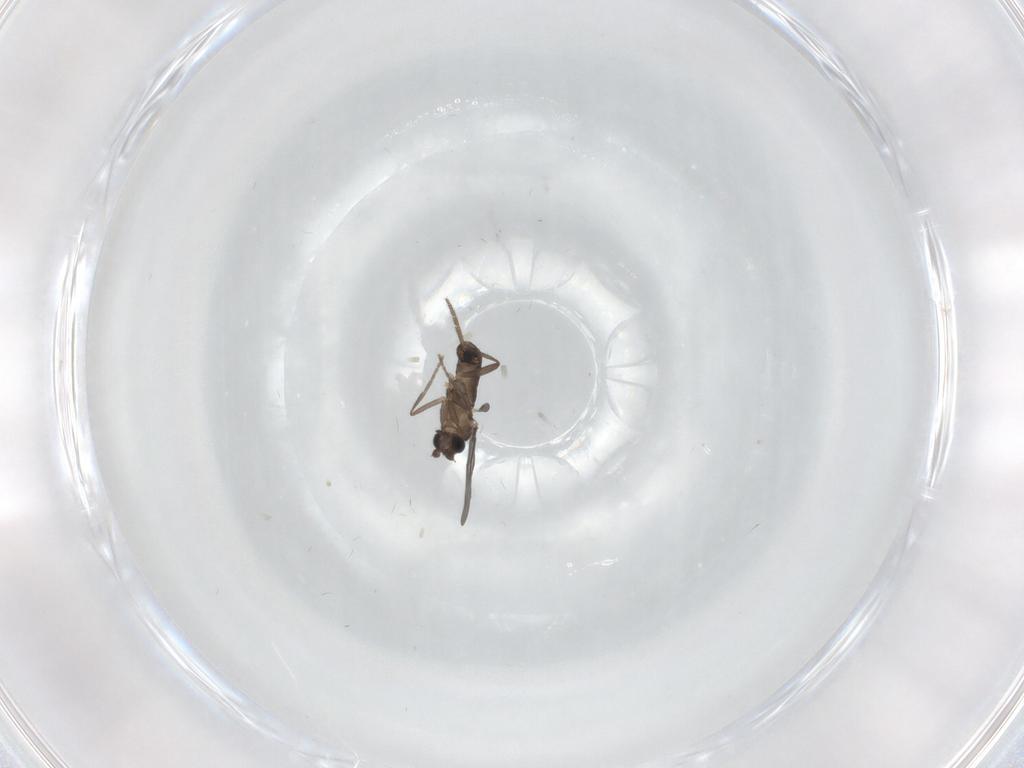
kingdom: Animalia
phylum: Arthropoda
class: Insecta
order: Diptera
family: Phoridae
